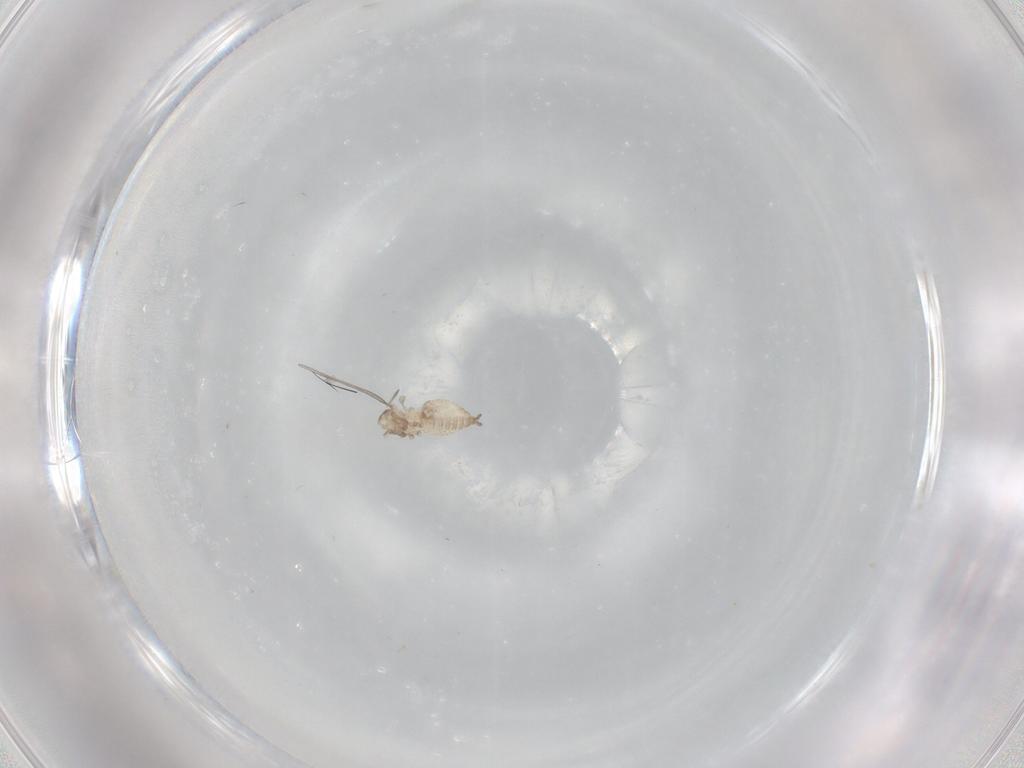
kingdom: Animalia
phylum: Arthropoda
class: Insecta
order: Diptera
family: Cecidomyiidae
